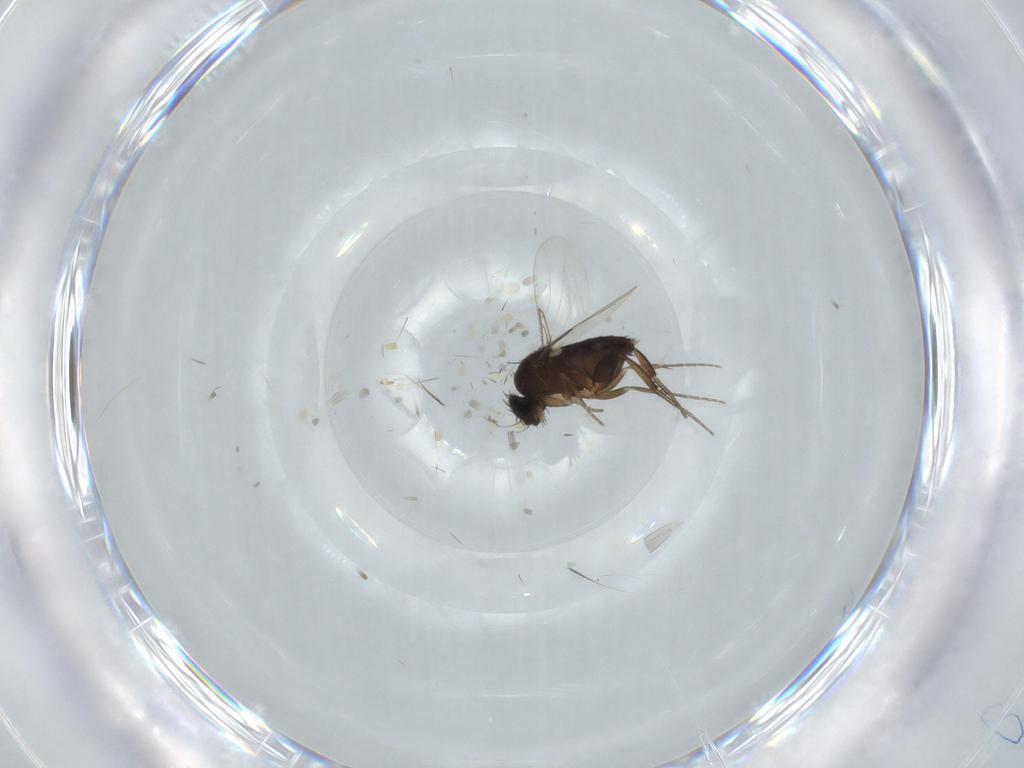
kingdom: Animalia
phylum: Arthropoda
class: Insecta
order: Diptera
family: Phoridae
